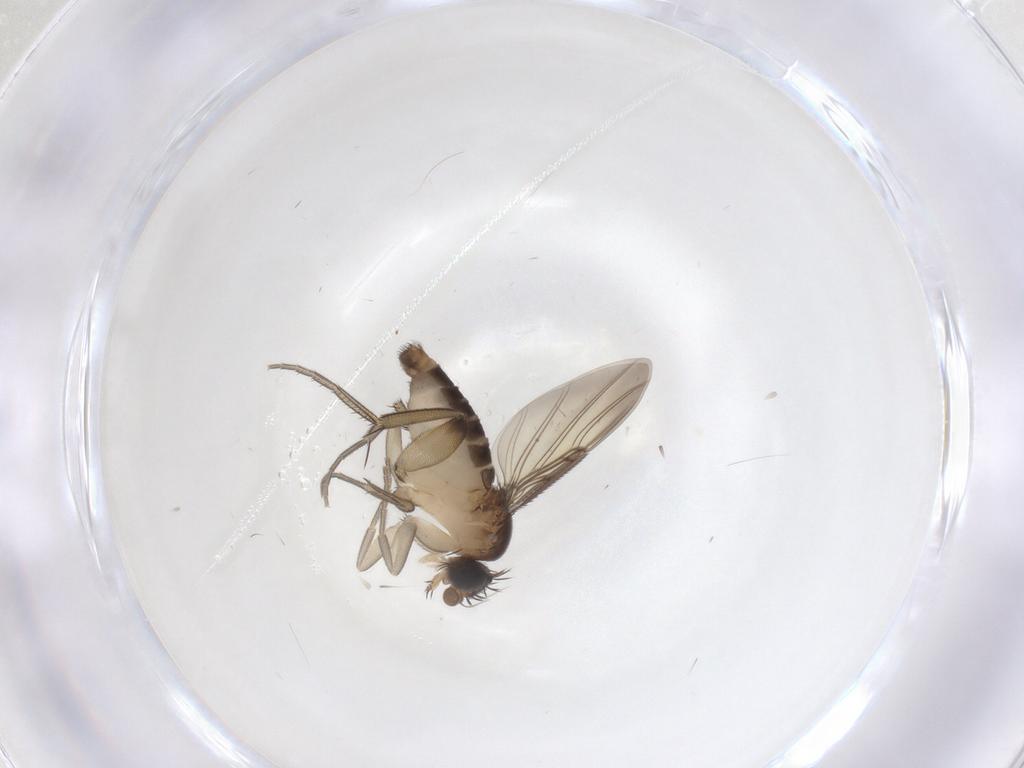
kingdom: Animalia
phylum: Arthropoda
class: Insecta
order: Diptera
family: Phoridae
